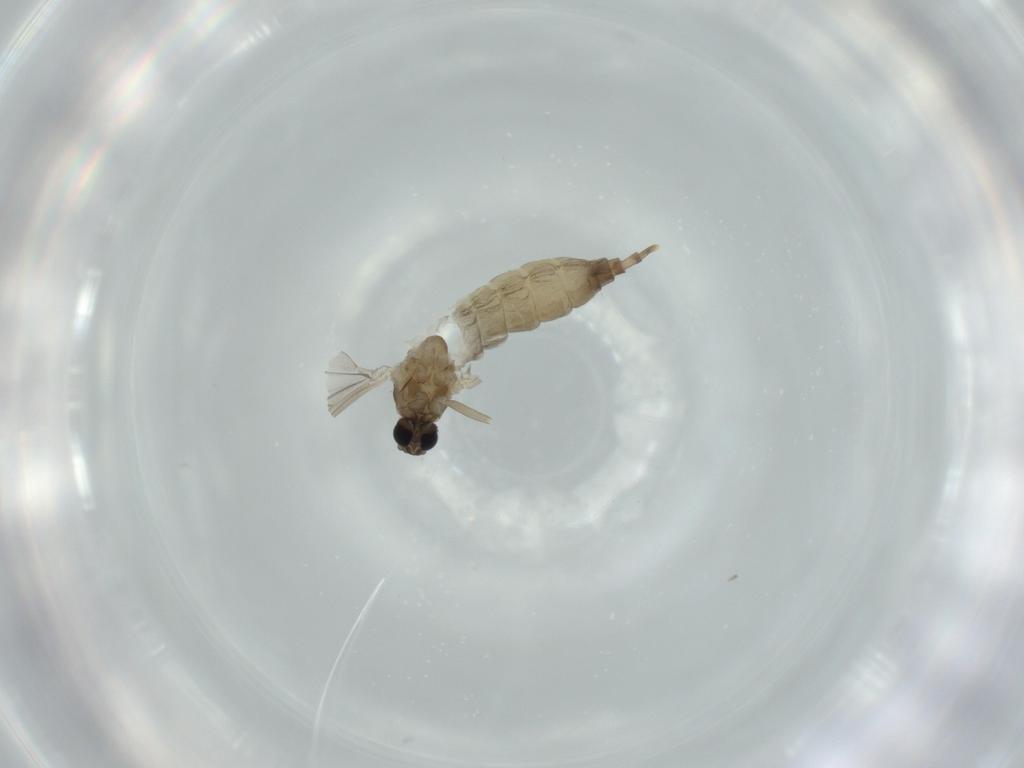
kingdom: Animalia
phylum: Arthropoda
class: Insecta
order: Diptera
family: Cecidomyiidae
